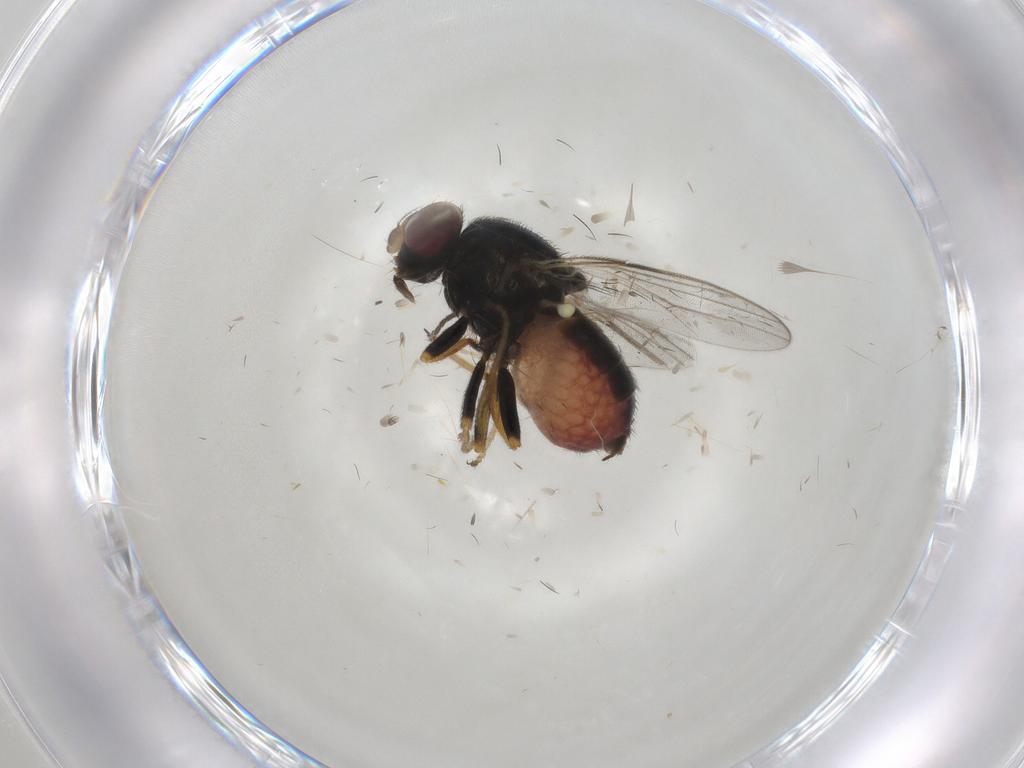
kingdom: Animalia
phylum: Arthropoda
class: Insecta
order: Diptera
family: Chloropidae
